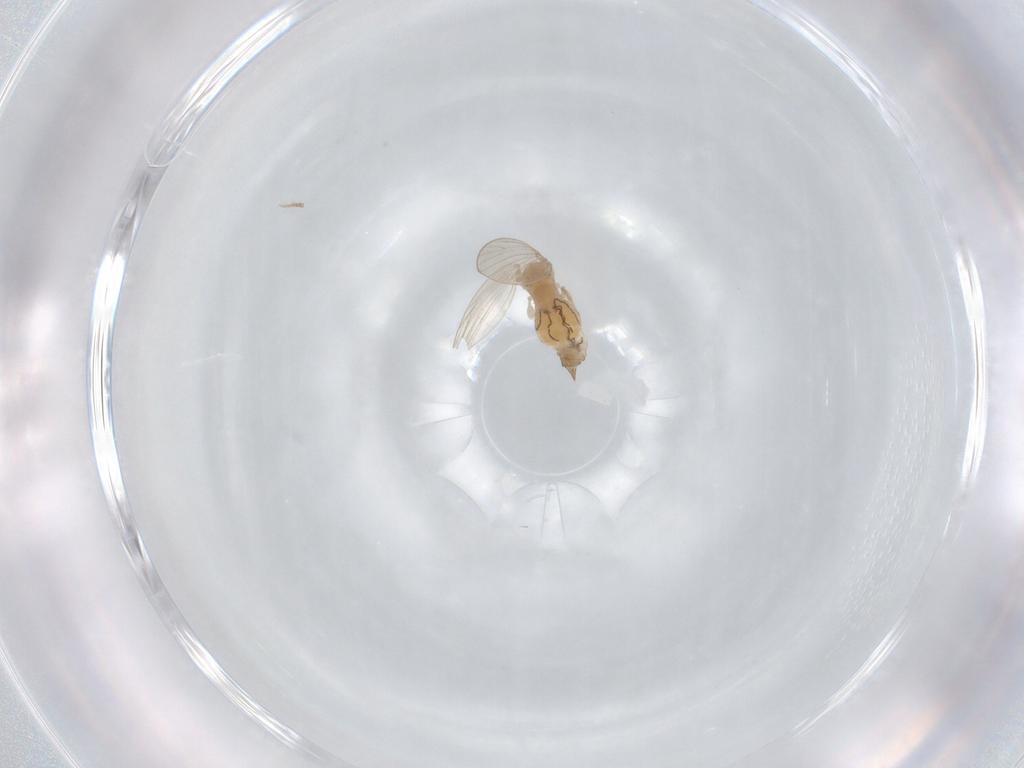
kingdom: Animalia
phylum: Arthropoda
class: Insecta
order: Diptera
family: Psychodidae
